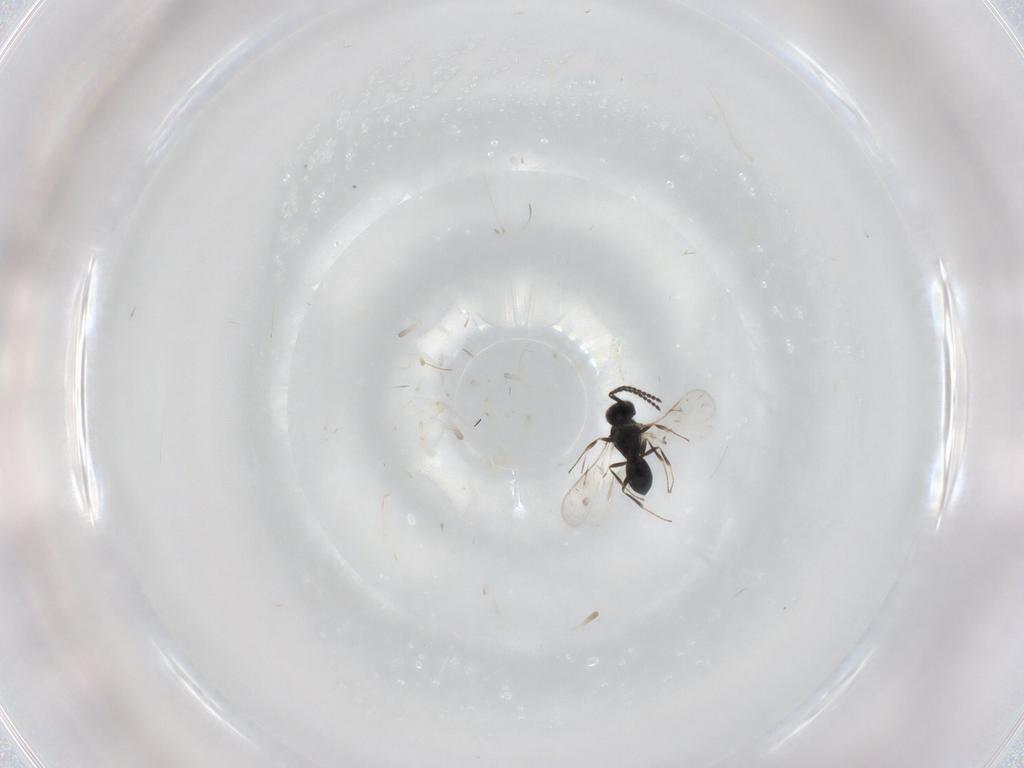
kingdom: Animalia
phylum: Arthropoda
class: Insecta
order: Hymenoptera
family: Scelionidae
